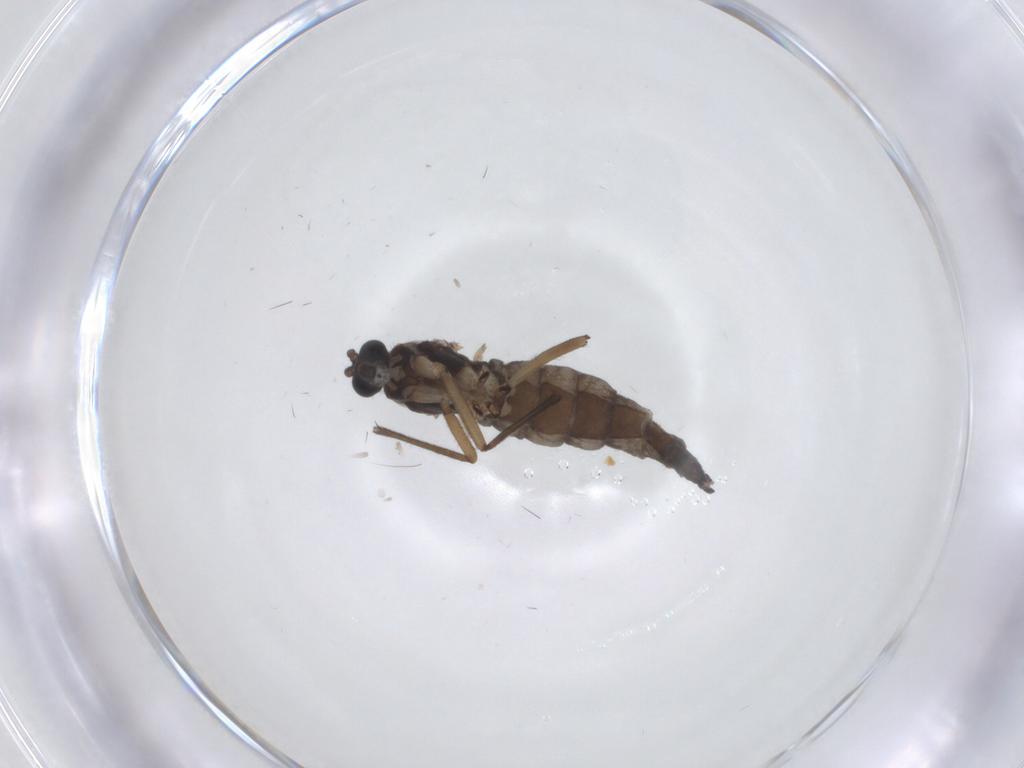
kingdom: Animalia
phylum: Arthropoda
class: Insecta
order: Diptera
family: Sciaridae
